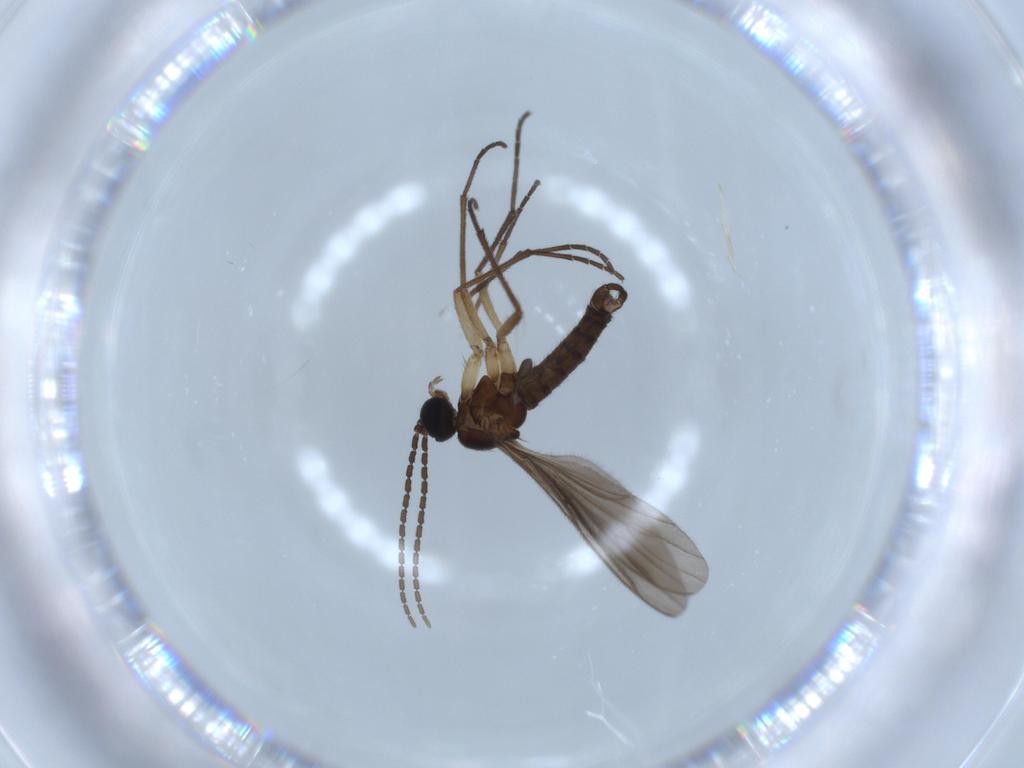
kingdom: Animalia
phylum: Arthropoda
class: Insecta
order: Diptera
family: Sciaridae
